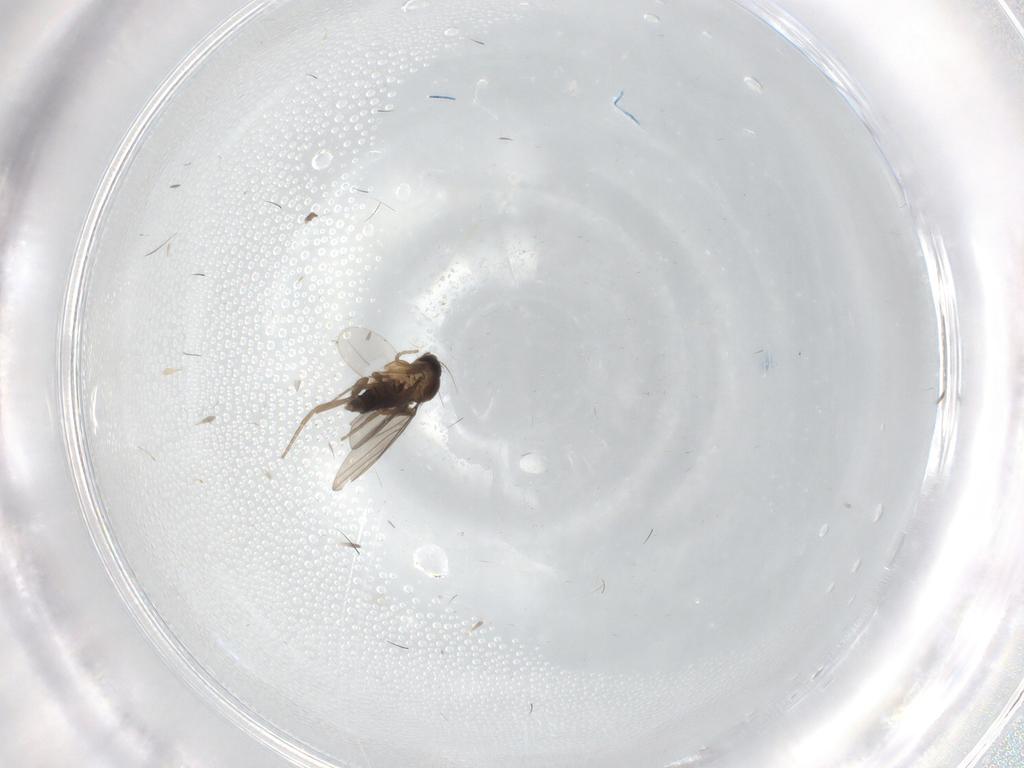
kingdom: Animalia
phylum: Arthropoda
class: Insecta
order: Diptera
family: Phoridae
